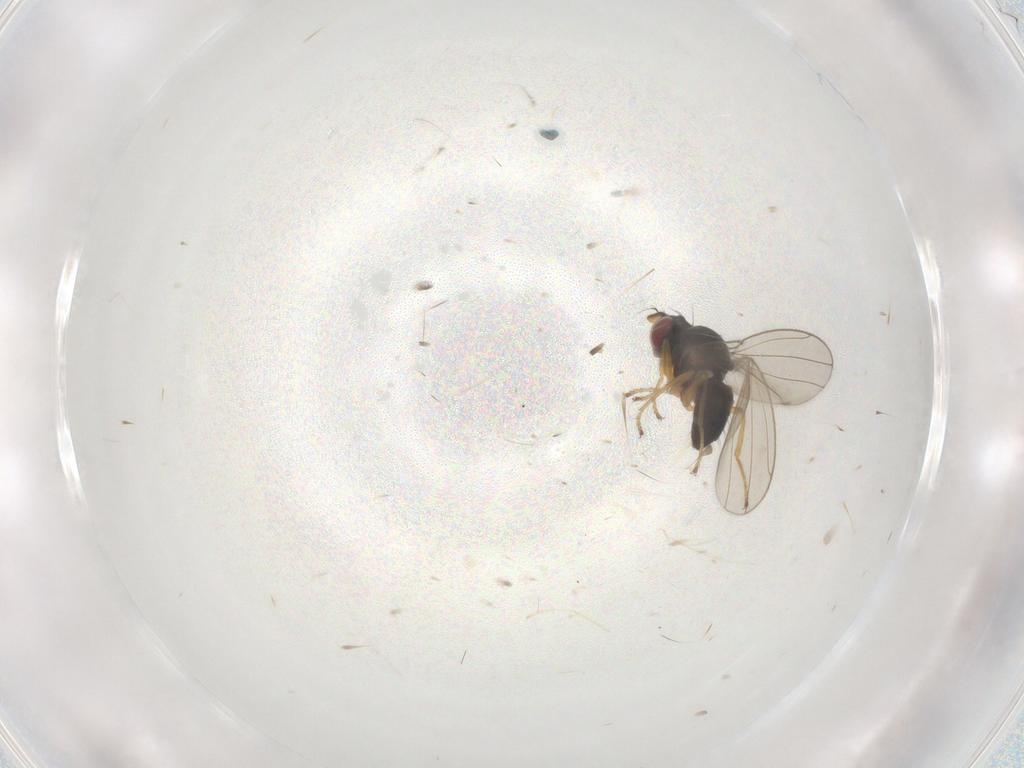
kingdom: Animalia
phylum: Arthropoda
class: Insecta
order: Diptera
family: Ephydridae
